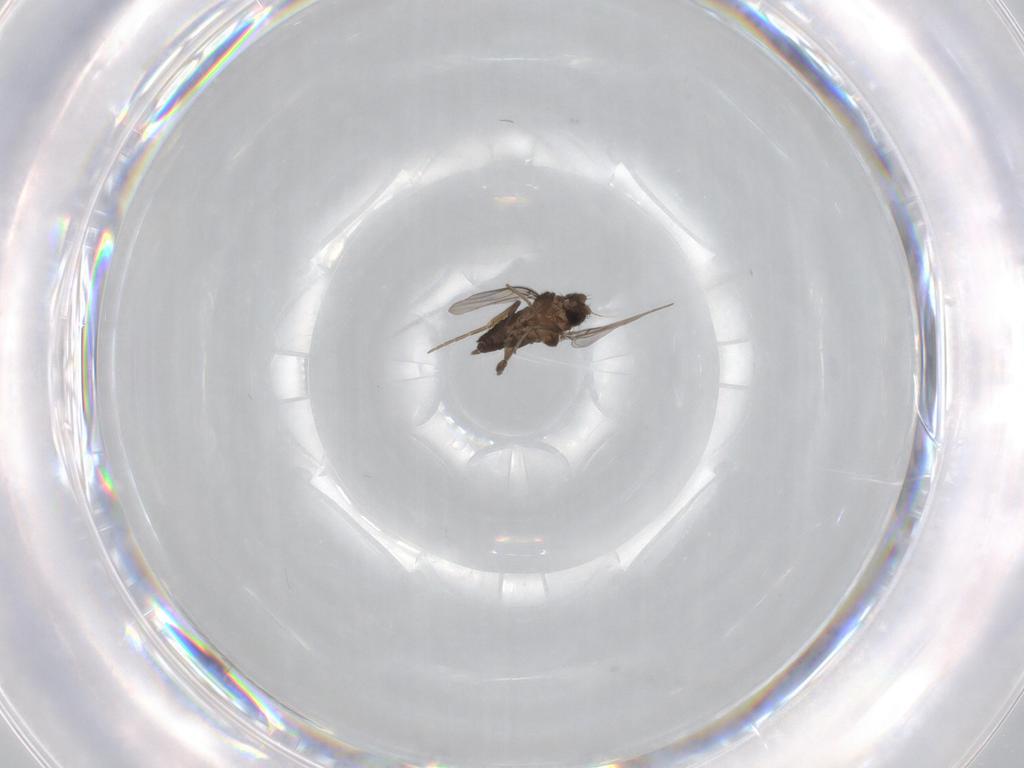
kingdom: Animalia
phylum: Arthropoda
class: Insecta
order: Diptera
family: Phoridae
